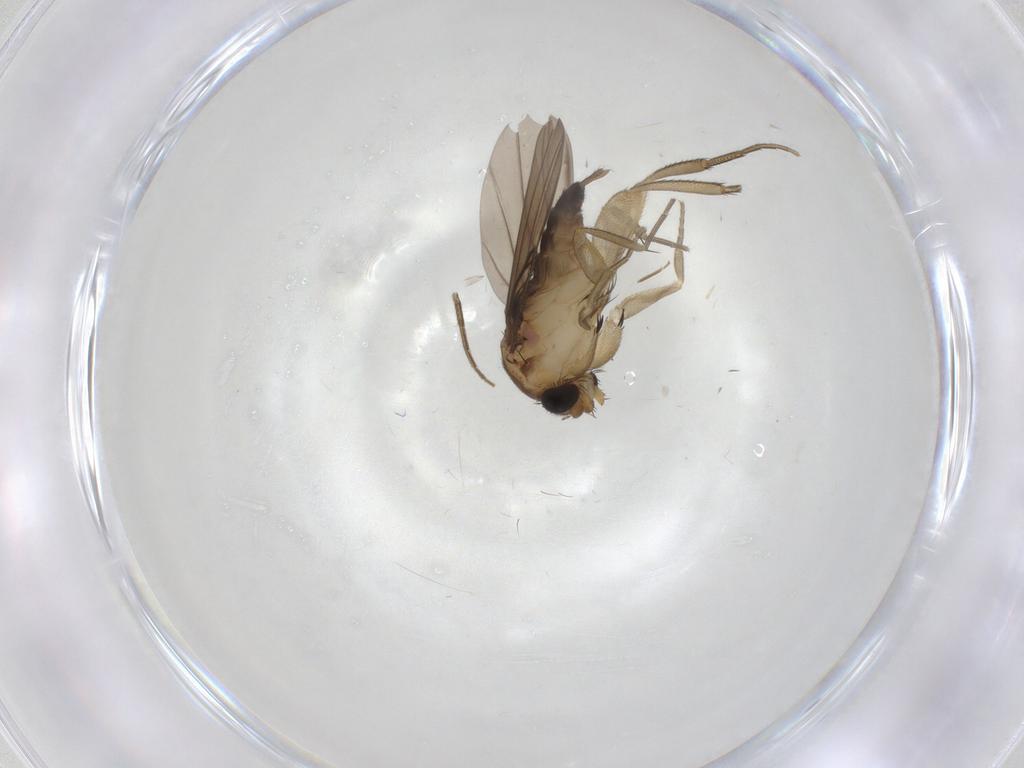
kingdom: Animalia
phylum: Arthropoda
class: Insecta
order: Diptera
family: Phoridae
